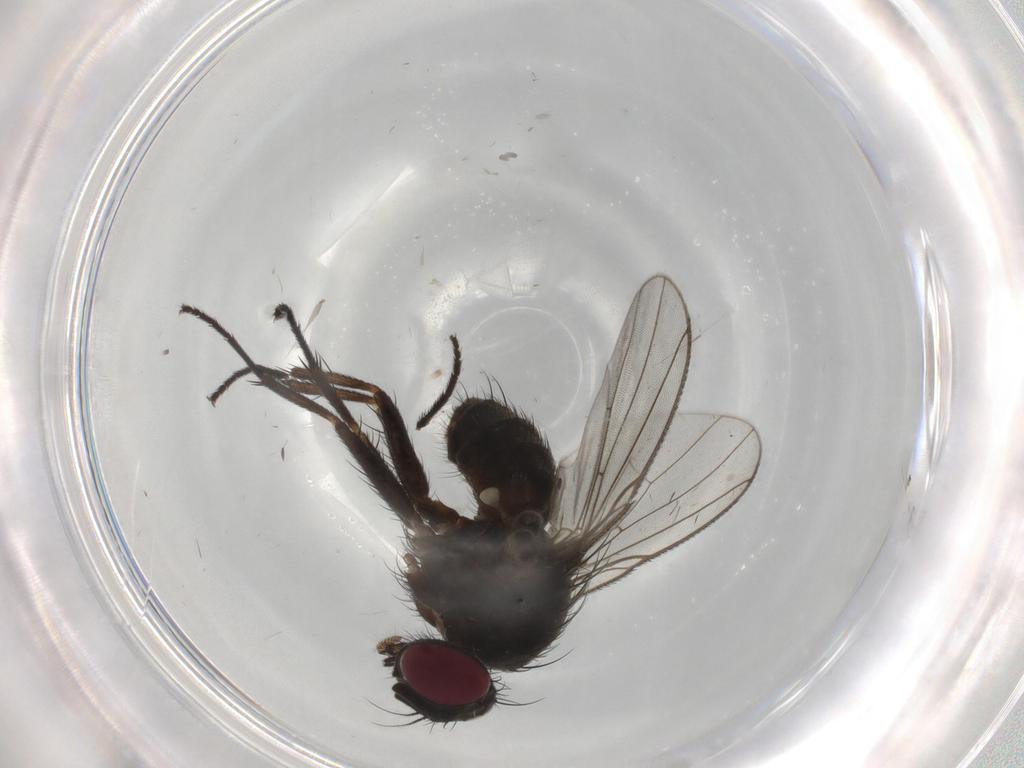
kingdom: Animalia
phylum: Arthropoda
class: Insecta
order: Diptera
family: Muscidae
